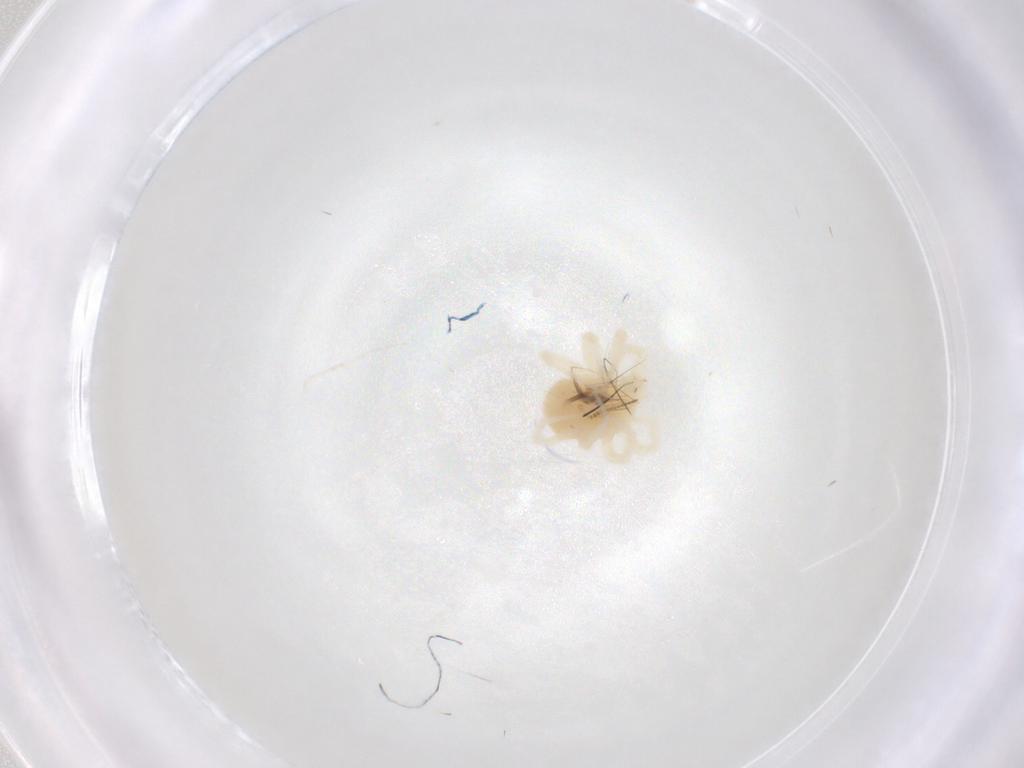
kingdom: Animalia
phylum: Arthropoda
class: Arachnida
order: Trombidiformes
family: Anystidae
